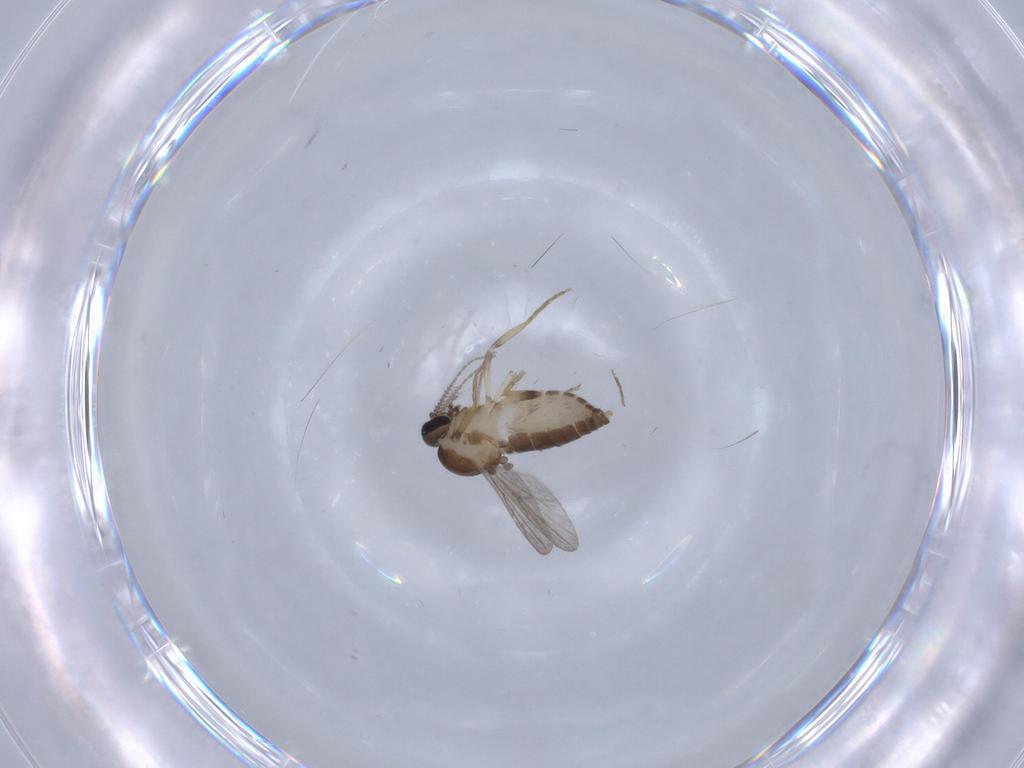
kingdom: Animalia
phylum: Arthropoda
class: Insecta
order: Diptera
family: Ceratopogonidae
